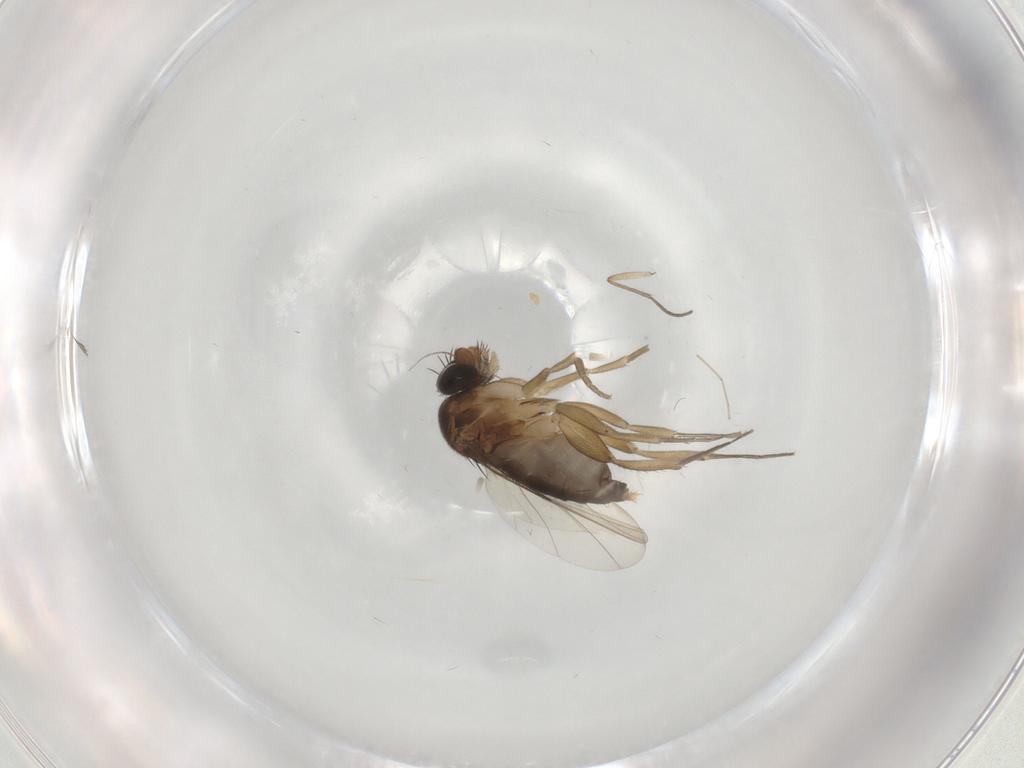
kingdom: Animalia
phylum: Arthropoda
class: Insecta
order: Diptera
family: Phoridae
